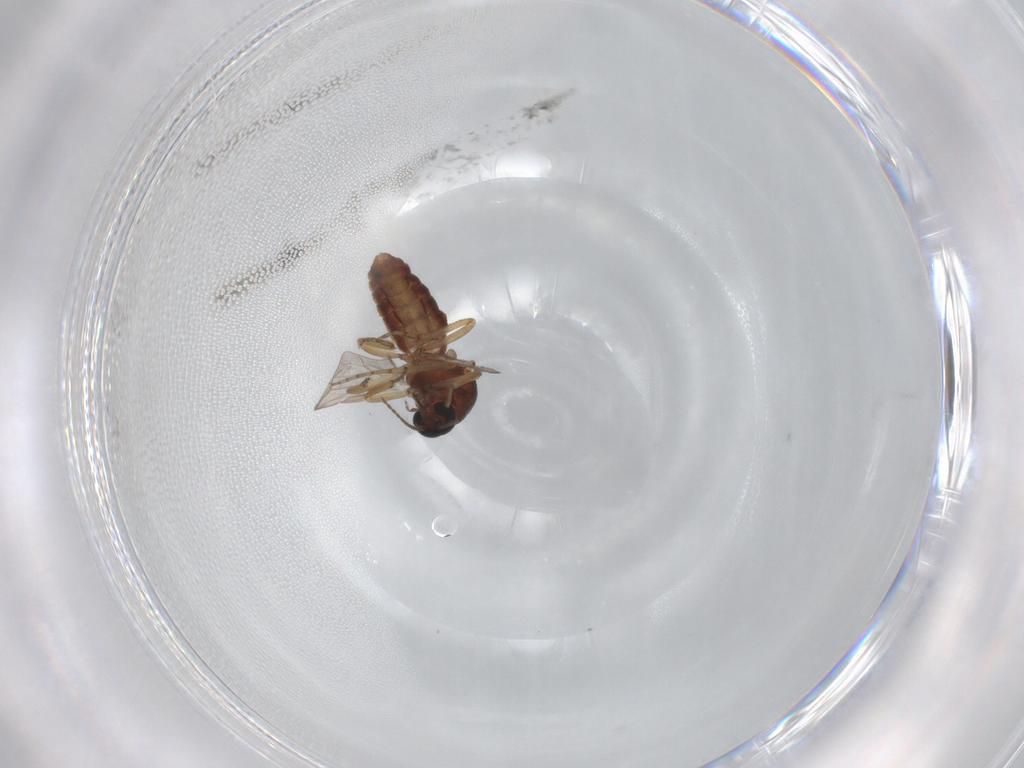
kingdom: Animalia
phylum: Arthropoda
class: Insecta
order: Diptera
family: Ceratopogonidae
